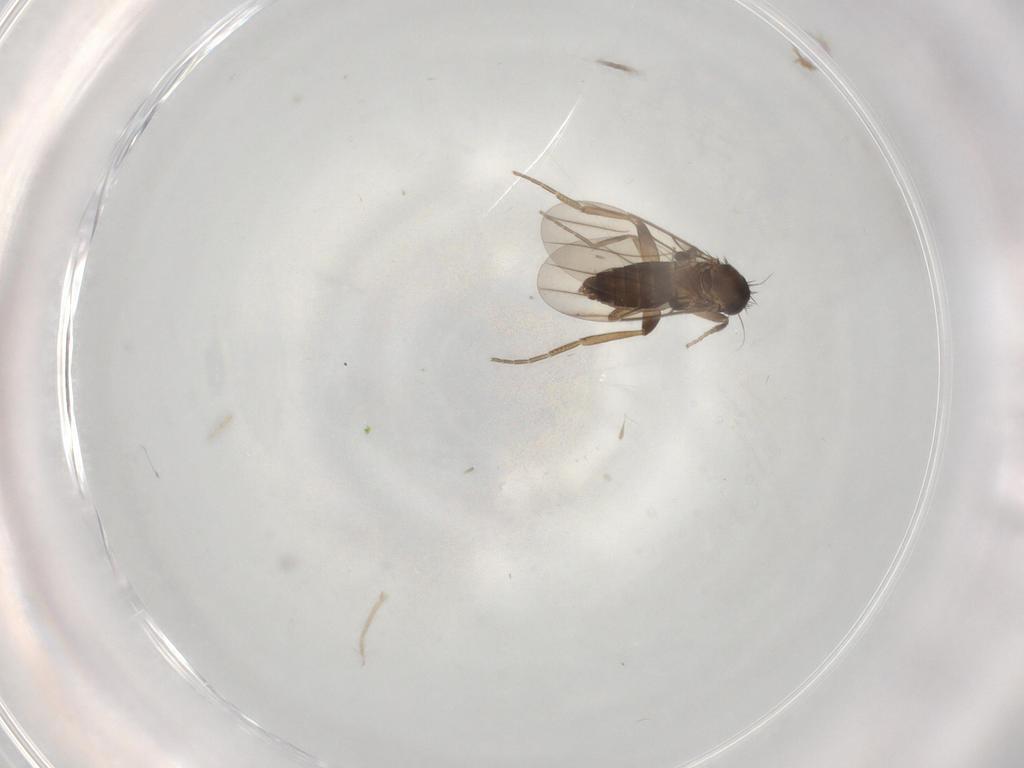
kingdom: Animalia
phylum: Arthropoda
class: Insecta
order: Diptera
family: Phoridae
